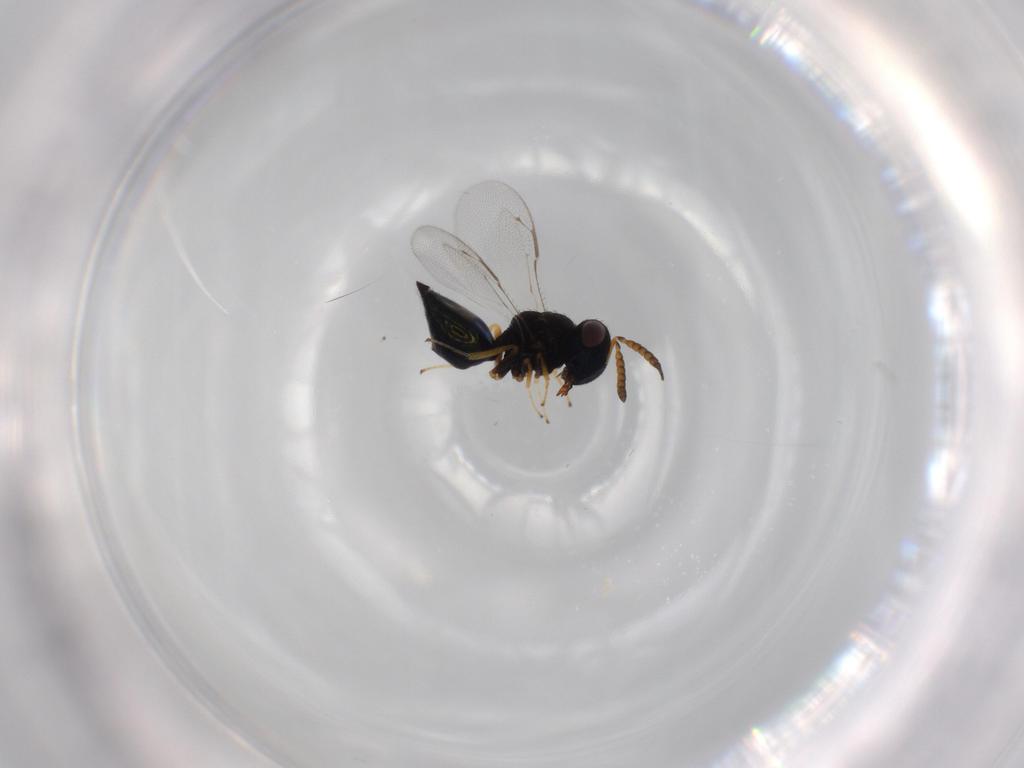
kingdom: Animalia
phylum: Arthropoda
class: Insecta
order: Hymenoptera
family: Pteromalidae
